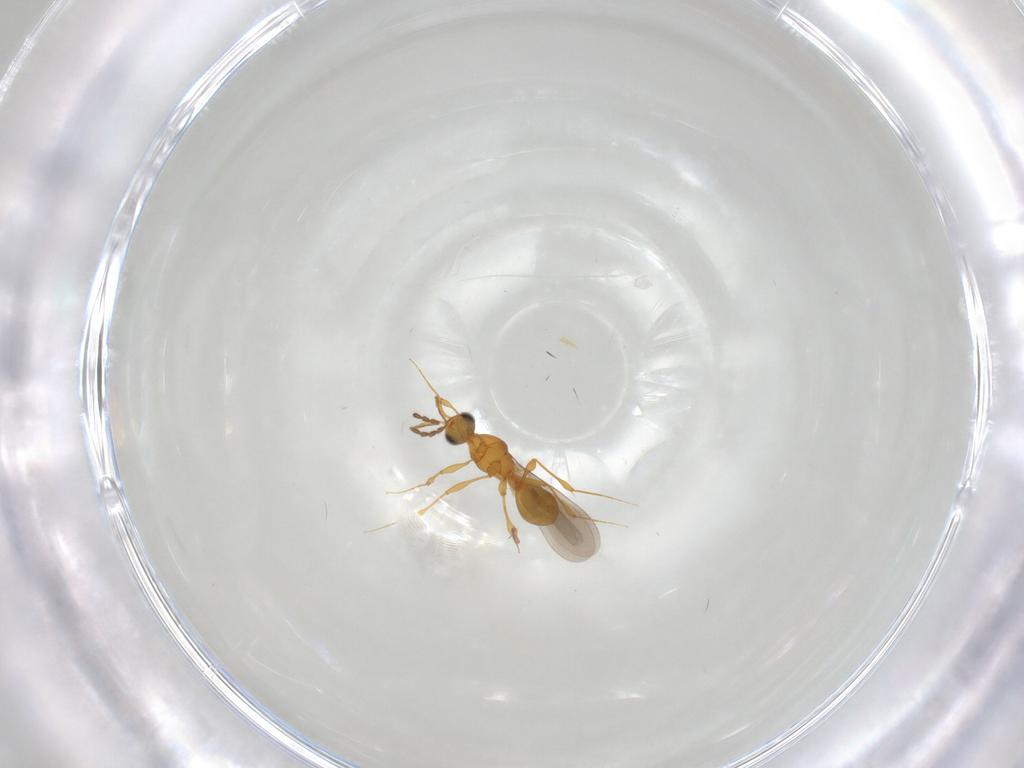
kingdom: Animalia
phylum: Arthropoda
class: Insecta
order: Hymenoptera
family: Platygastridae
